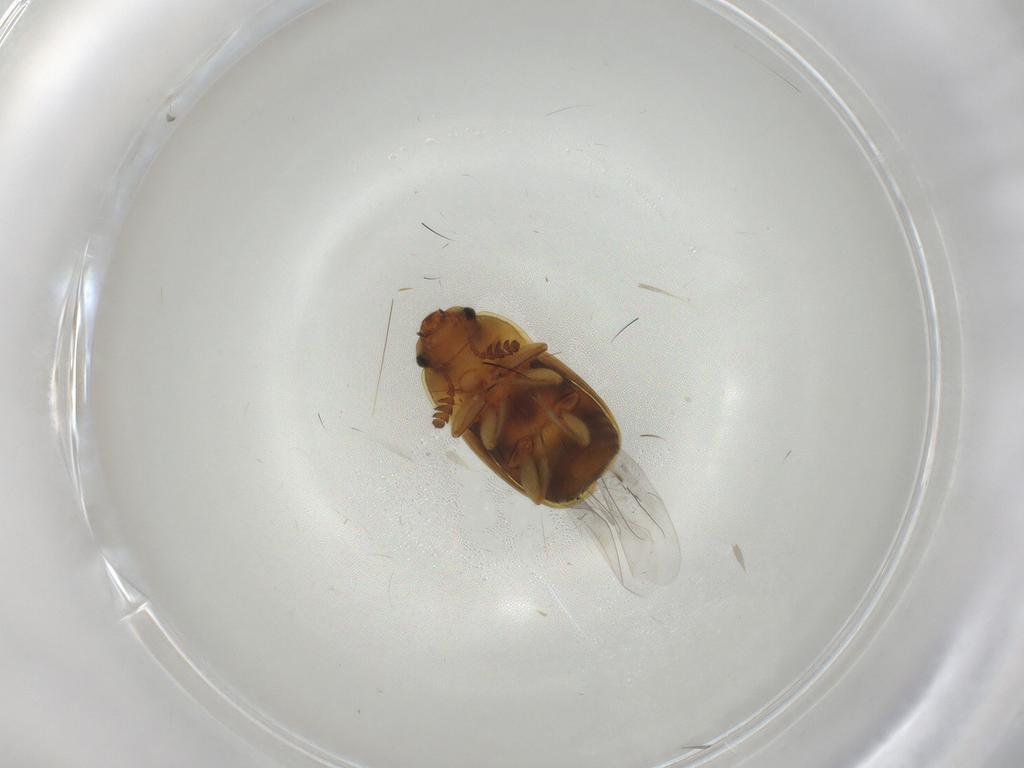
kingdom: Animalia
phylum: Arthropoda
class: Insecta
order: Coleoptera
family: Nitidulidae
